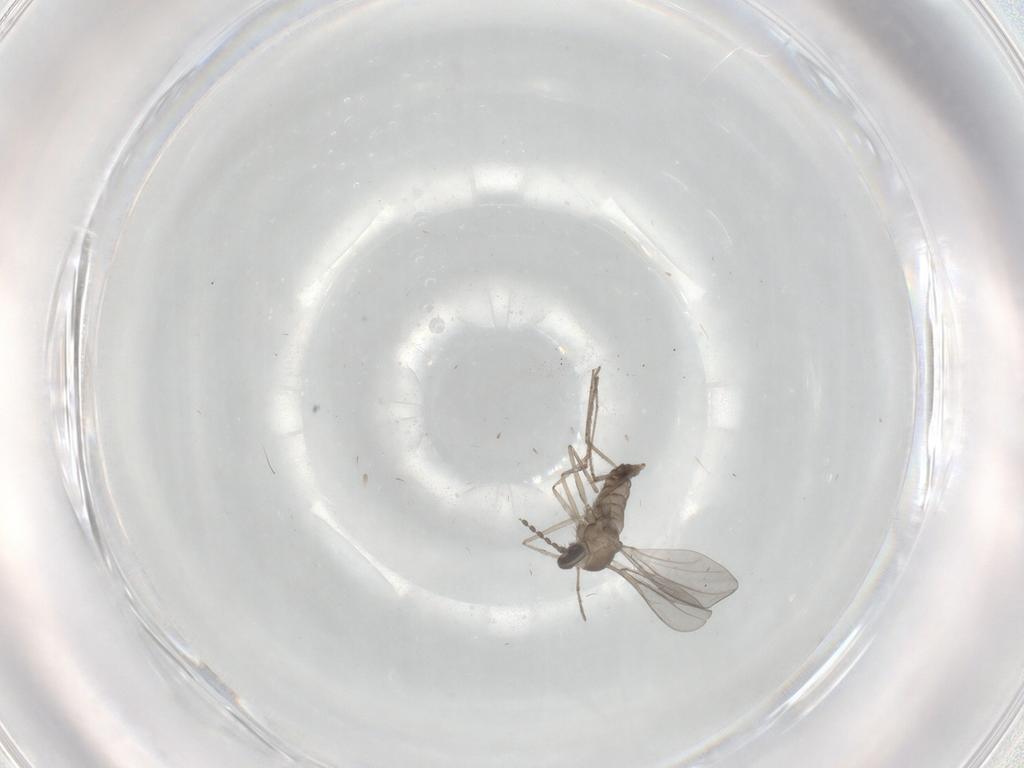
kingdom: Animalia
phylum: Arthropoda
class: Insecta
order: Diptera
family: Cecidomyiidae
